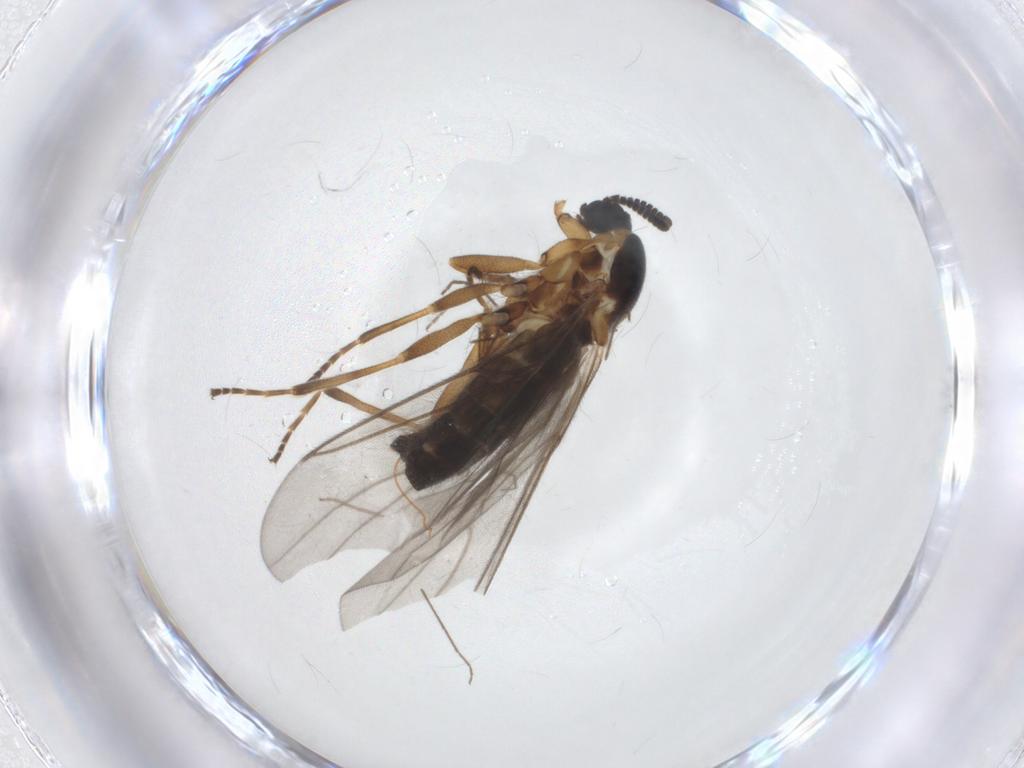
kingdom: Animalia
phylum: Arthropoda
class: Insecta
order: Diptera
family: Scatopsidae
